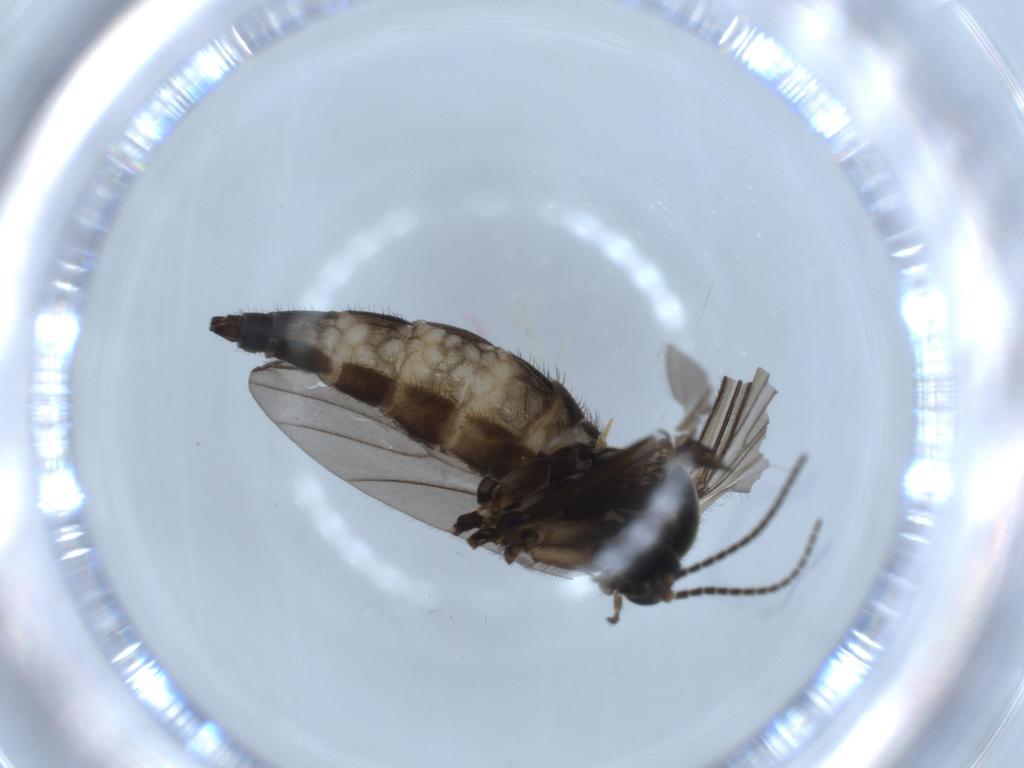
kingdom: Animalia
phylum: Arthropoda
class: Insecta
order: Diptera
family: Sciaridae
